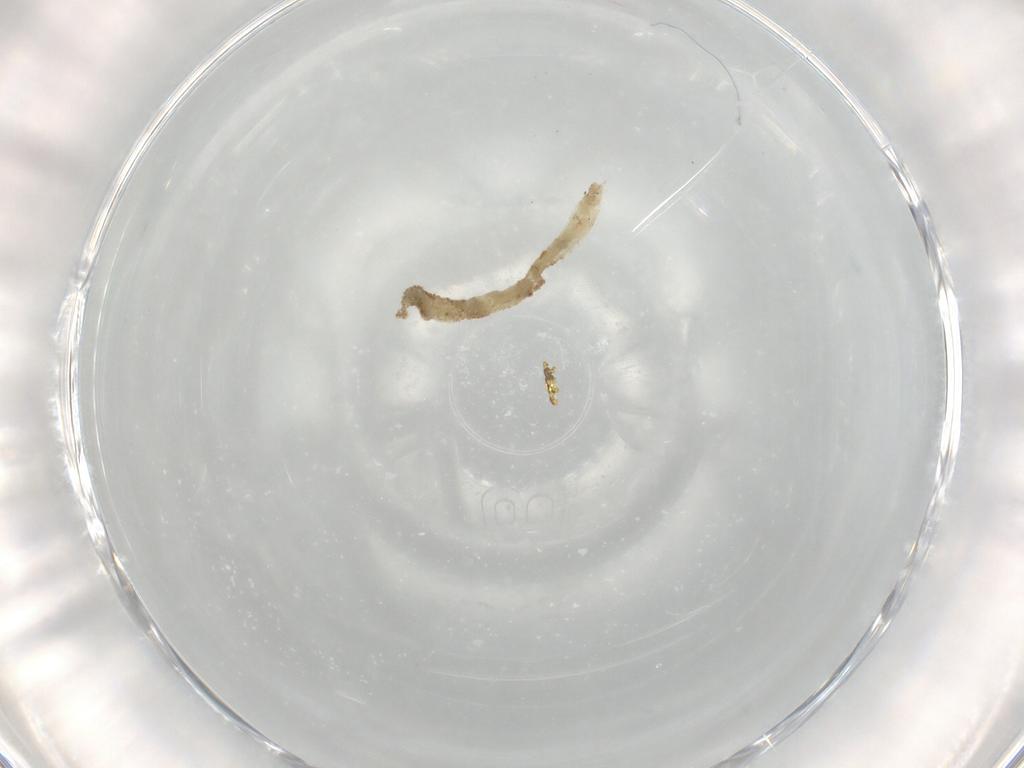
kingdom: Animalia
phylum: Arthropoda
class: Insecta
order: Diptera
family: Chironomidae
